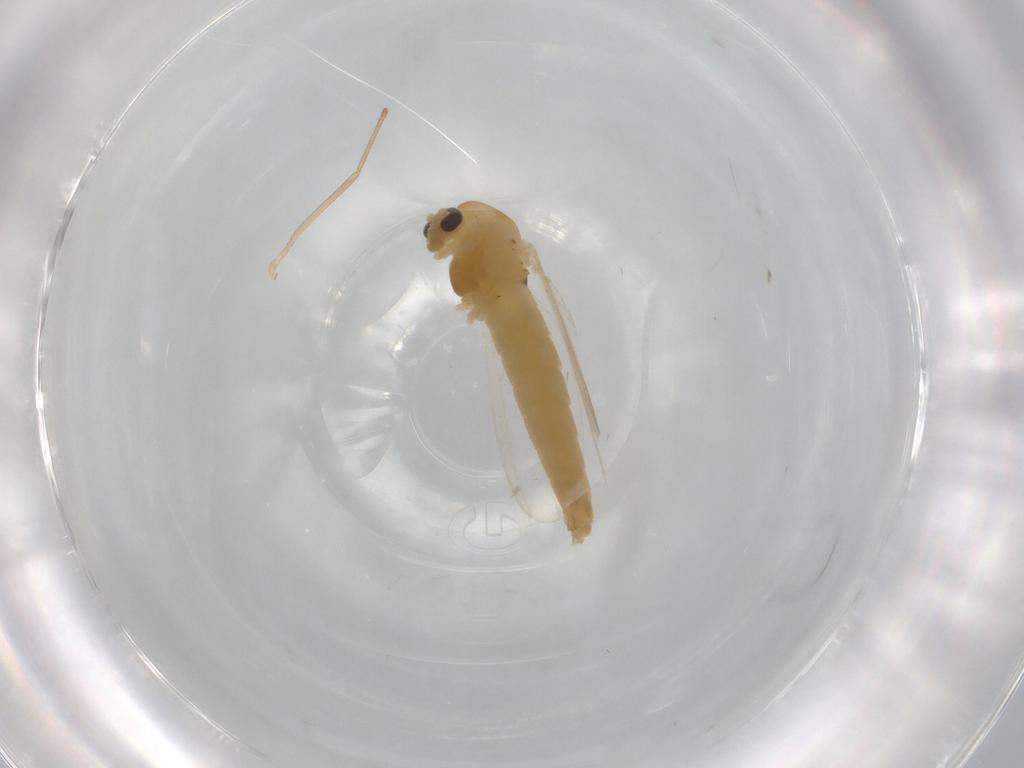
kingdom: Animalia
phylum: Arthropoda
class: Insecta
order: Diptera
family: Chironomidae
